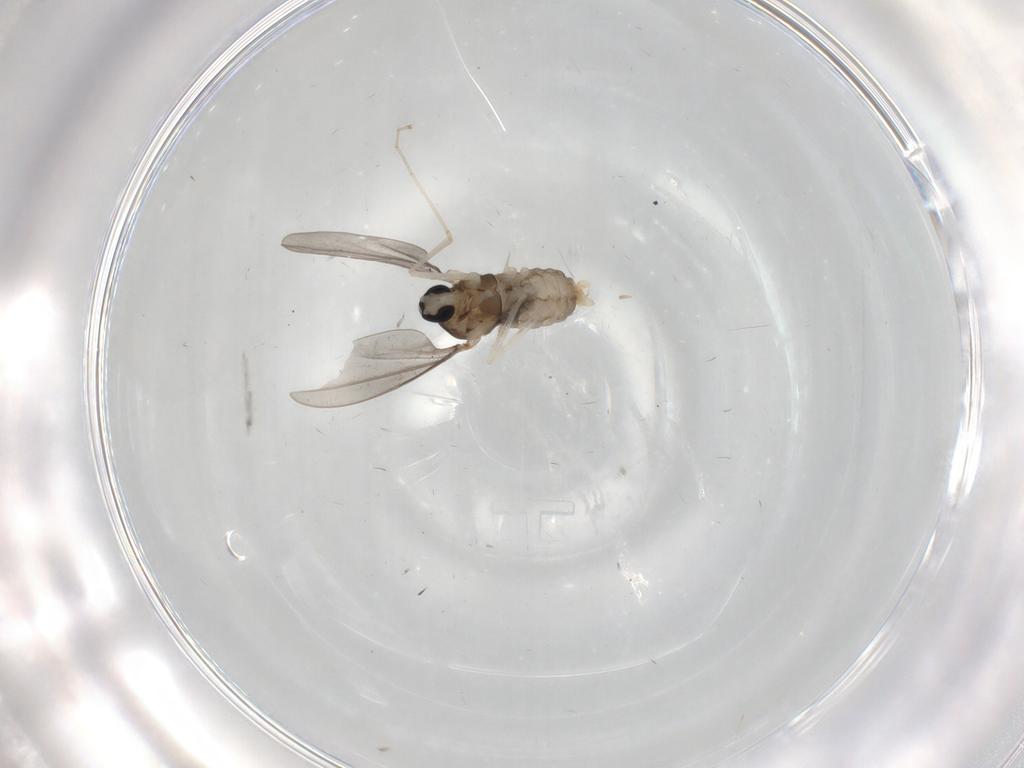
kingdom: Animalia
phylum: Arthropoda
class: Insecta
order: Diptera
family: Cecidomyiidae
